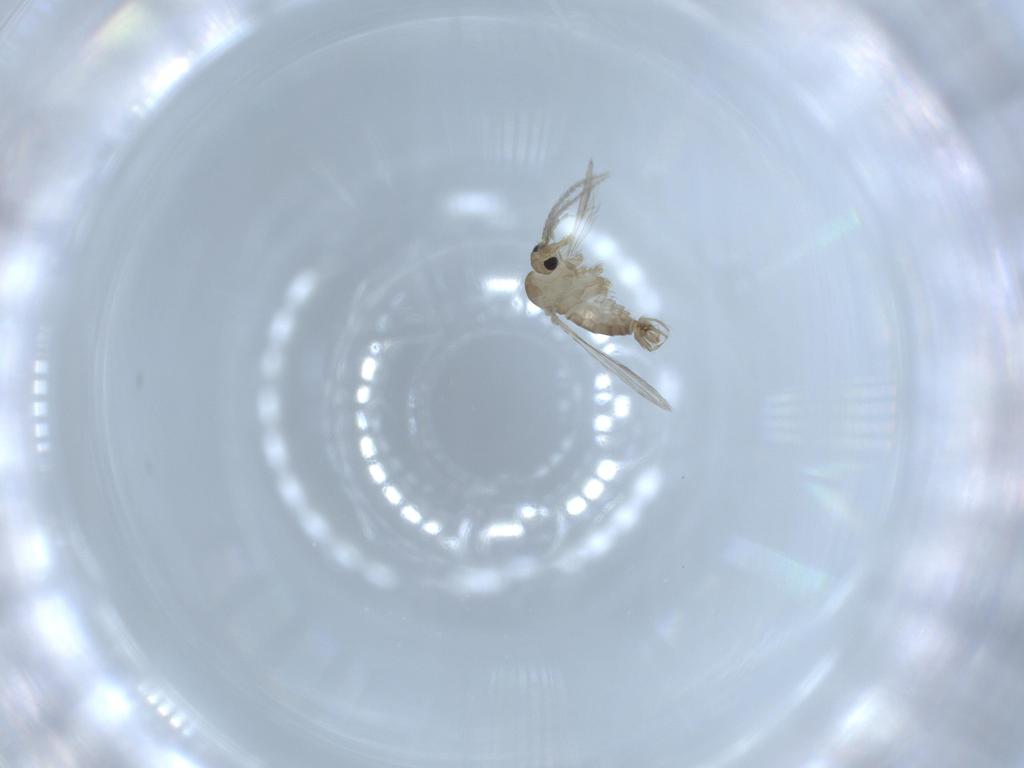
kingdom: Animalia
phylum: Arthropoda
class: Insecta
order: Diptera
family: Psychodidae
